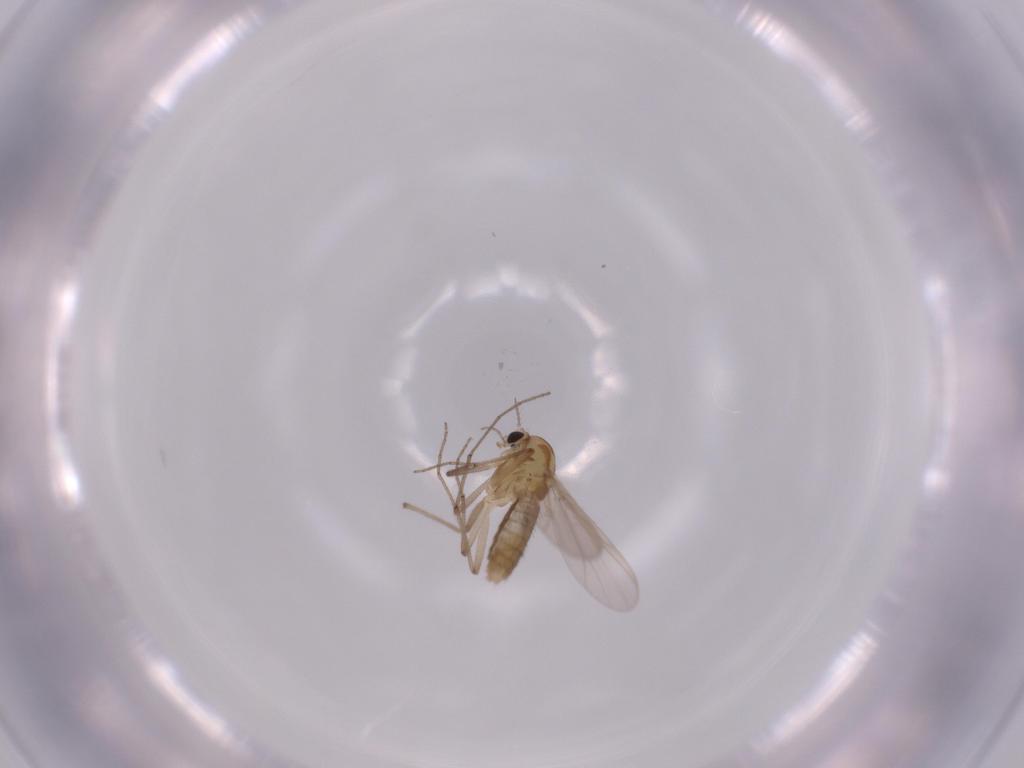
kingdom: Animalia
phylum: Arthropoda
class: Insecta
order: Diptera
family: Chironomidae
